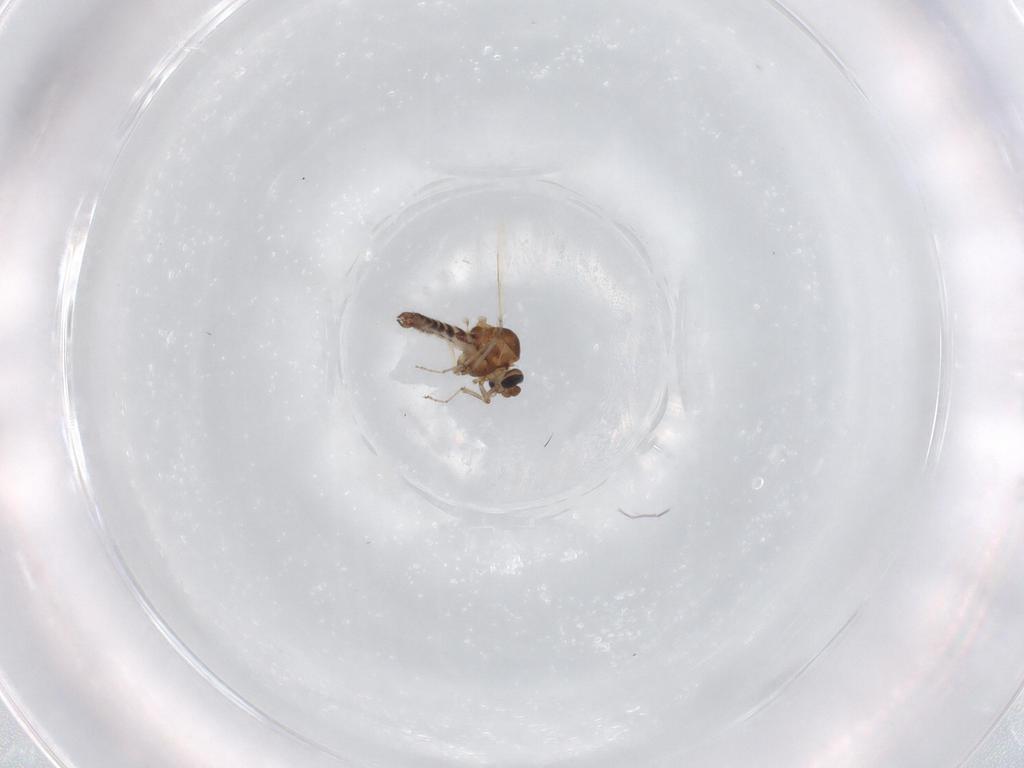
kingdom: Animalia
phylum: Arthropoda
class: Insecta
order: Diptera
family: Ceratopogonidae
